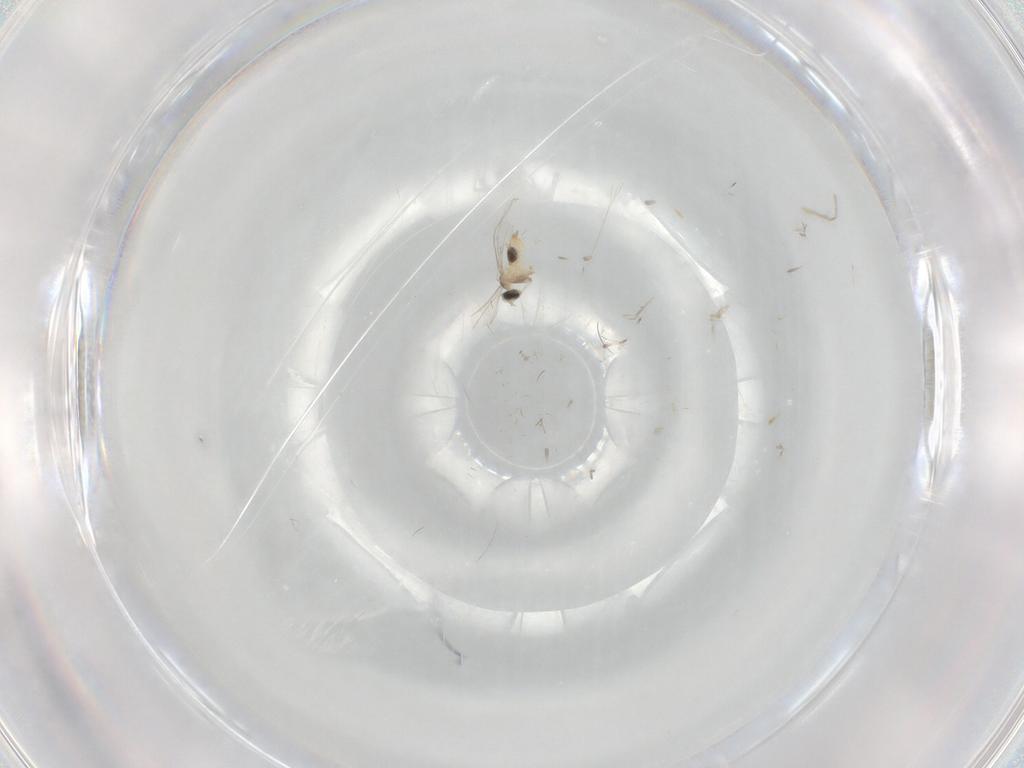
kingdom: Animalia
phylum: Arthropoda
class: Insecta
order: Diptera
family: Cecidomyiidae
